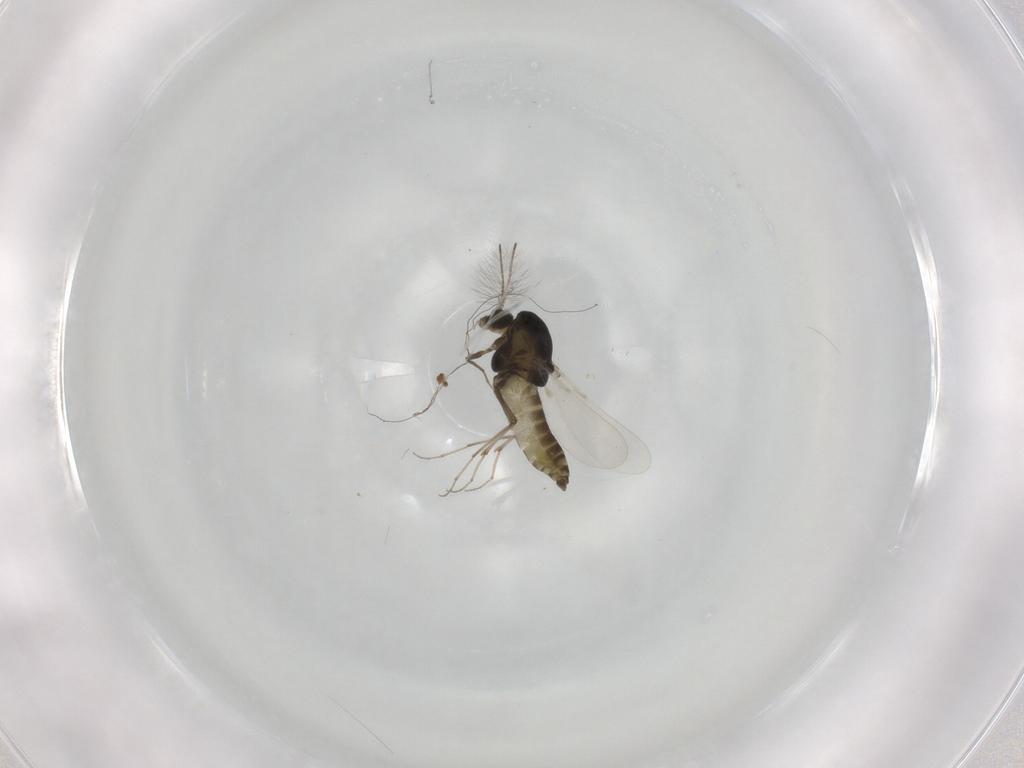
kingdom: Animalia
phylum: Arthropoda
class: Insecta
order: Diptera
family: Chironomidae
